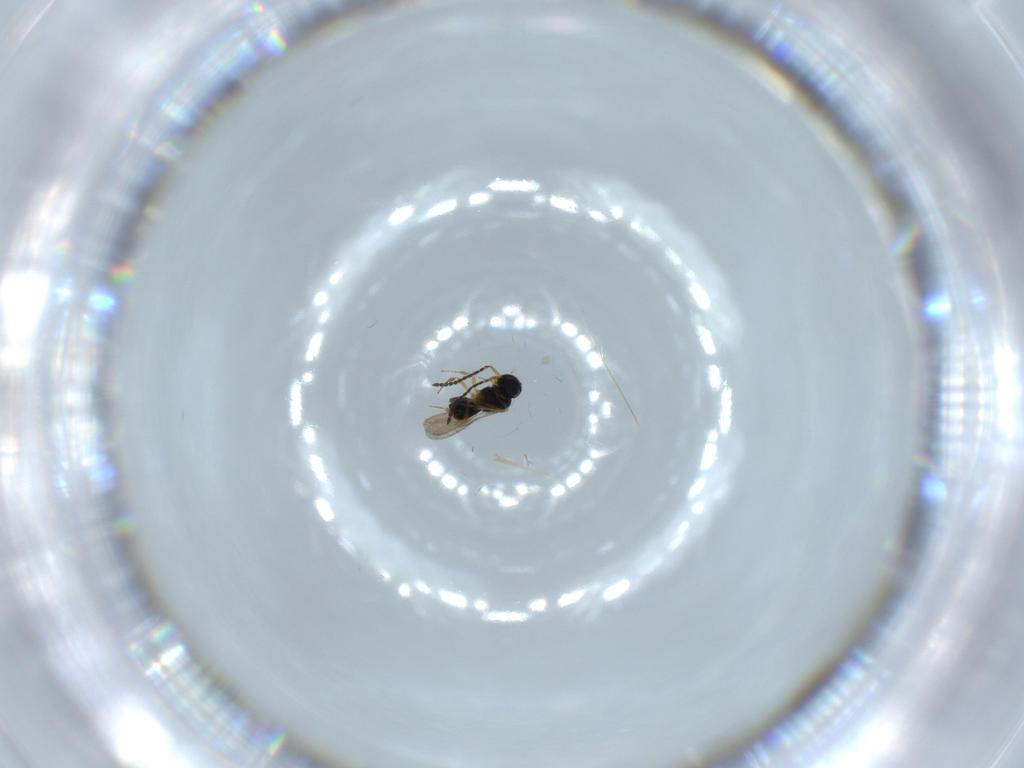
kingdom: Animalia
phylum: Arthropoda
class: Insecta
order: Hymenoptera
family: Scelionidae
